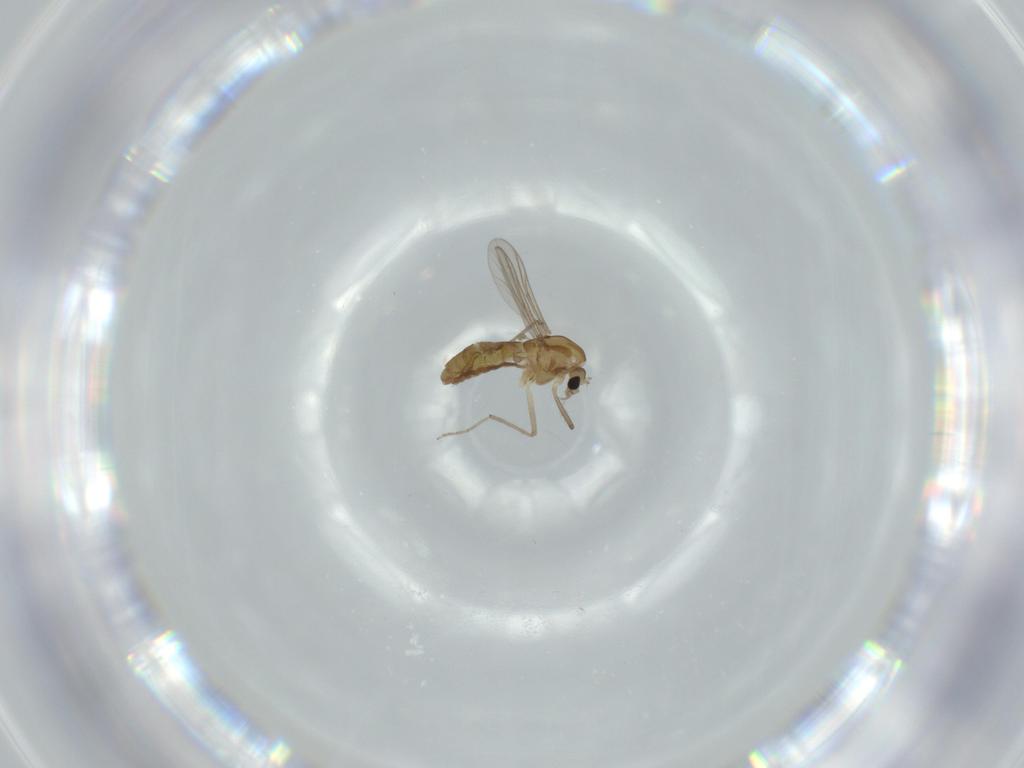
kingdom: Animalia
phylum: Arthropoda
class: Insecta
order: Diptera
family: Chironomidae
